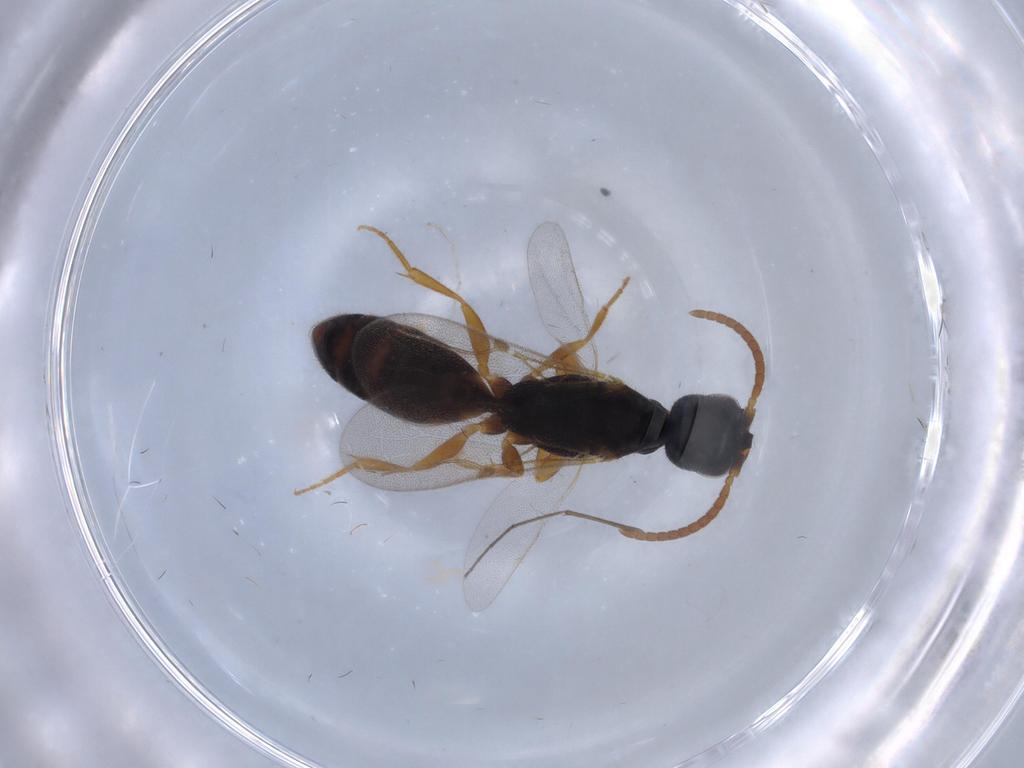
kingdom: Animalia
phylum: Arthropoda
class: Insecta
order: Hymenoptera
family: Bethylidae
